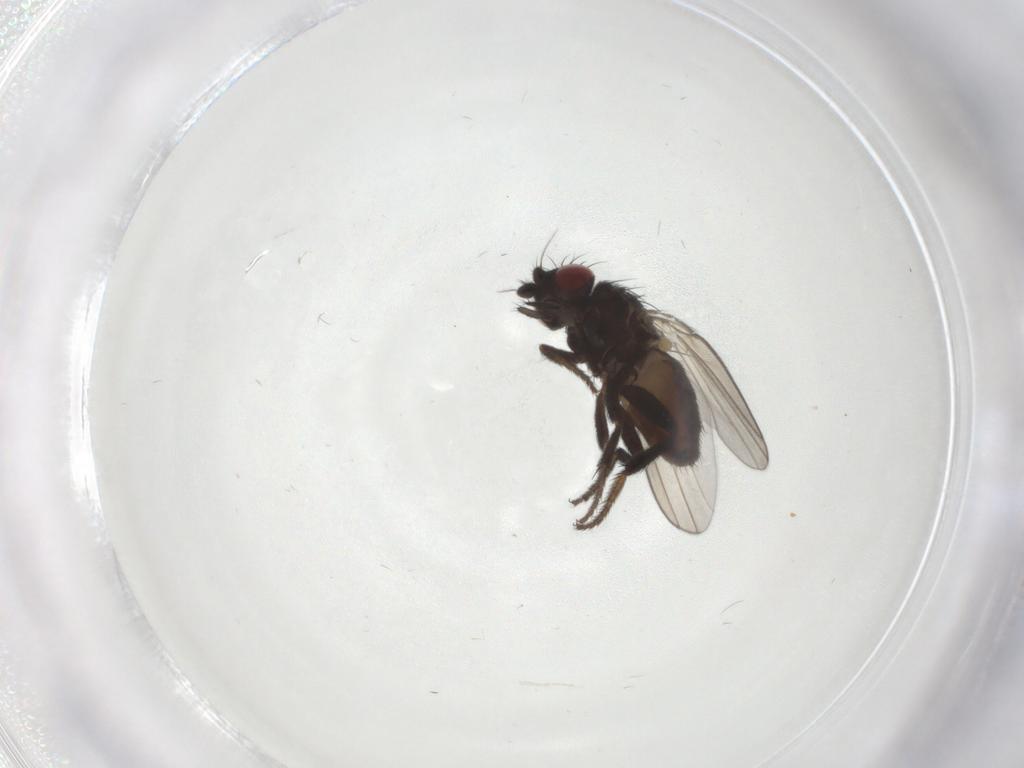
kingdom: Animalia
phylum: Arthropoda
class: Insecta
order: Diptera
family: Milichiidae
